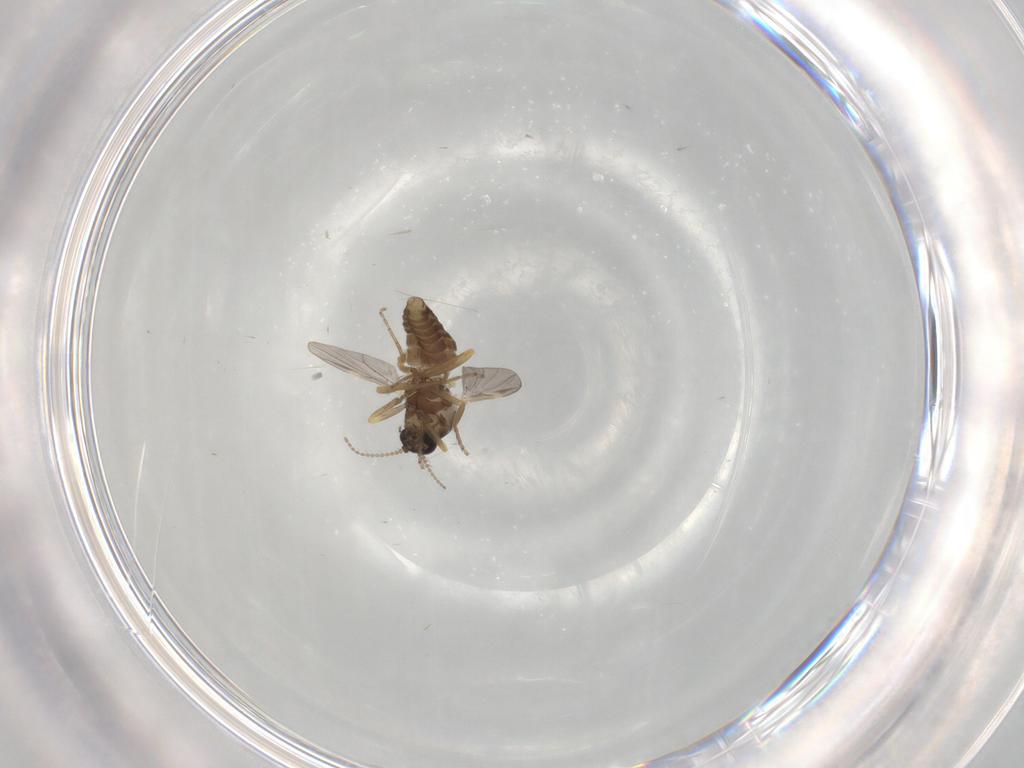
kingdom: Animalia
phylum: Arthropoda
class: Insecta
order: Diptera
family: Ceratopogonidae
